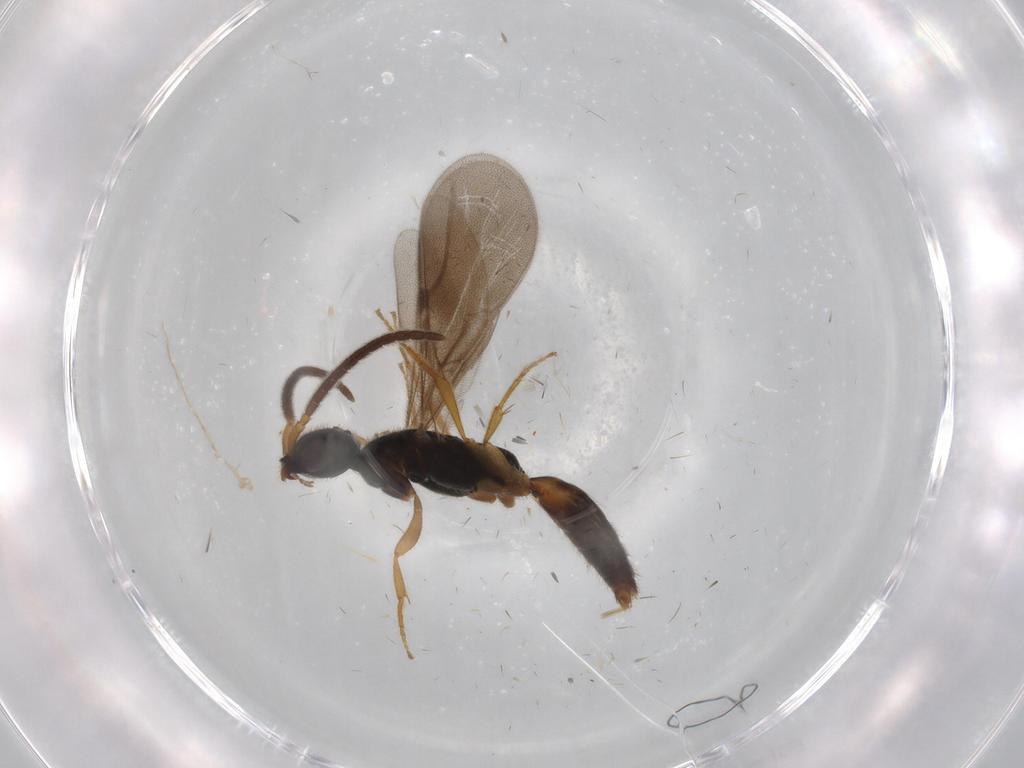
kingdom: Animalia
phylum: Arthropoda
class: Insecta
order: Hymenoptera
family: Bethylidae
